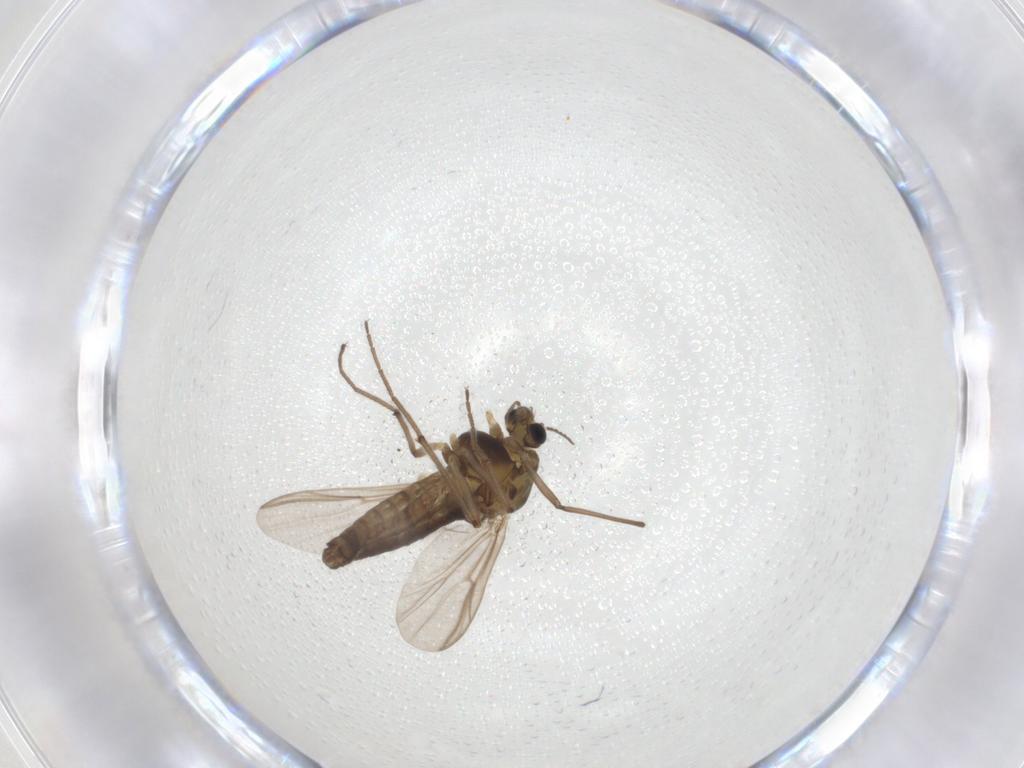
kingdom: Animalia
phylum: Arthropoda
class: Insecta
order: Diptera
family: Chironomidae
